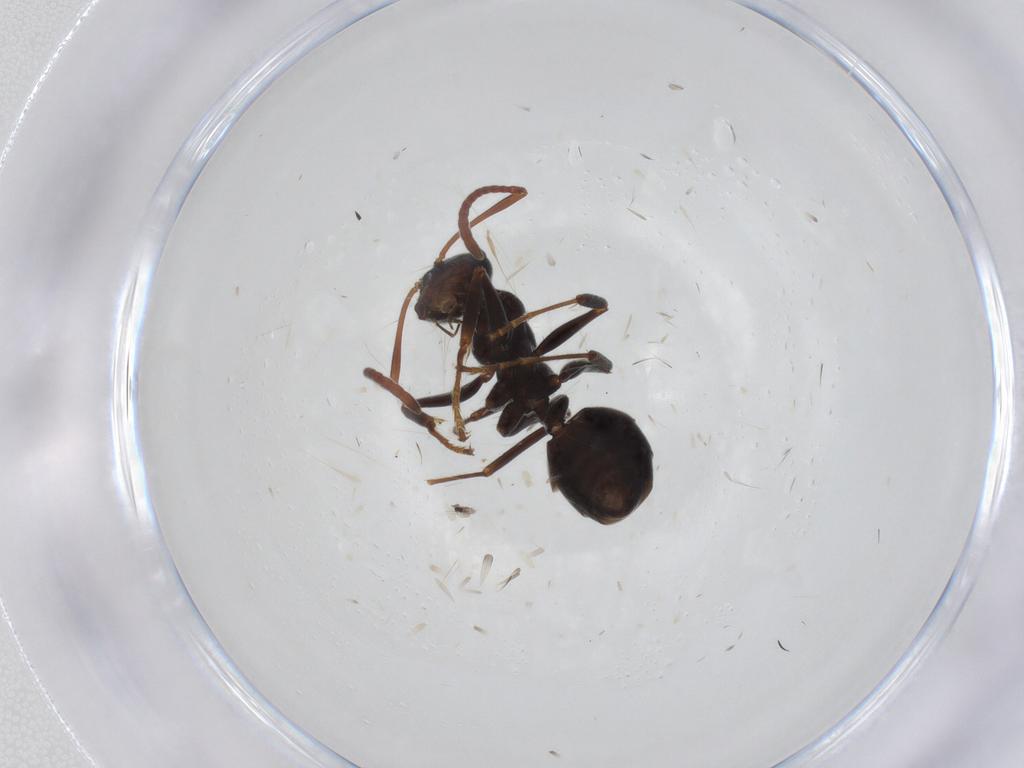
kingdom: Animalia
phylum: Arthropoda
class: Insecta
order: Hymenoptera
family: Formicidae
